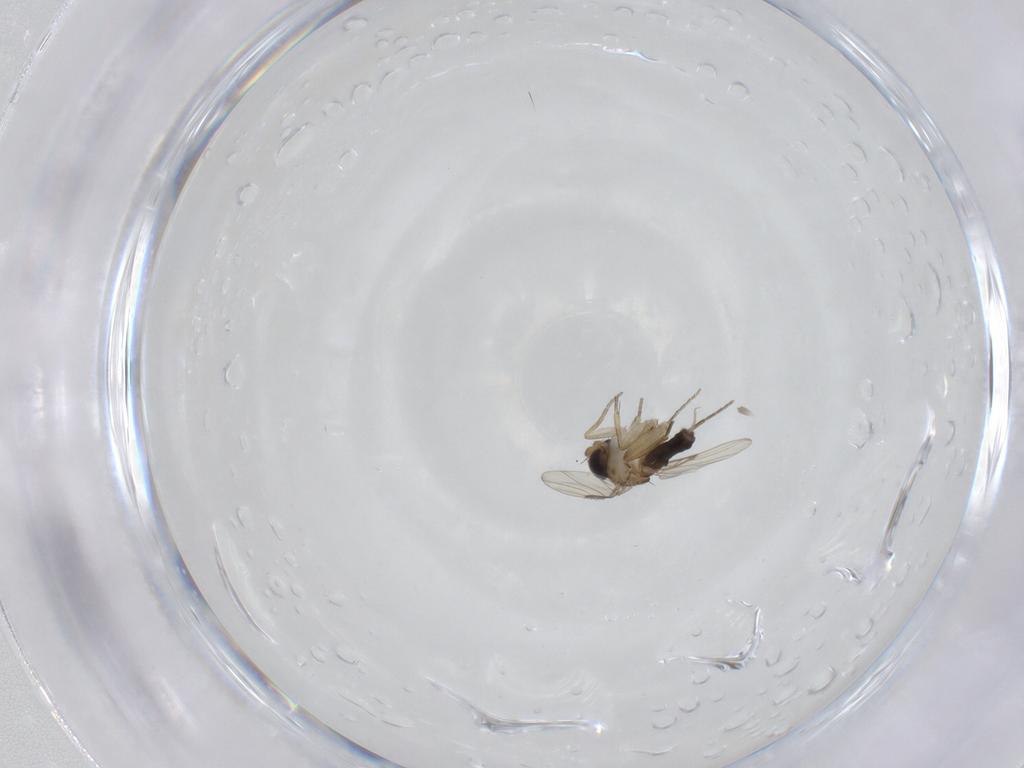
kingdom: Animalia
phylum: Arthropoda
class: Insecta
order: Diptera
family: Phoridae
